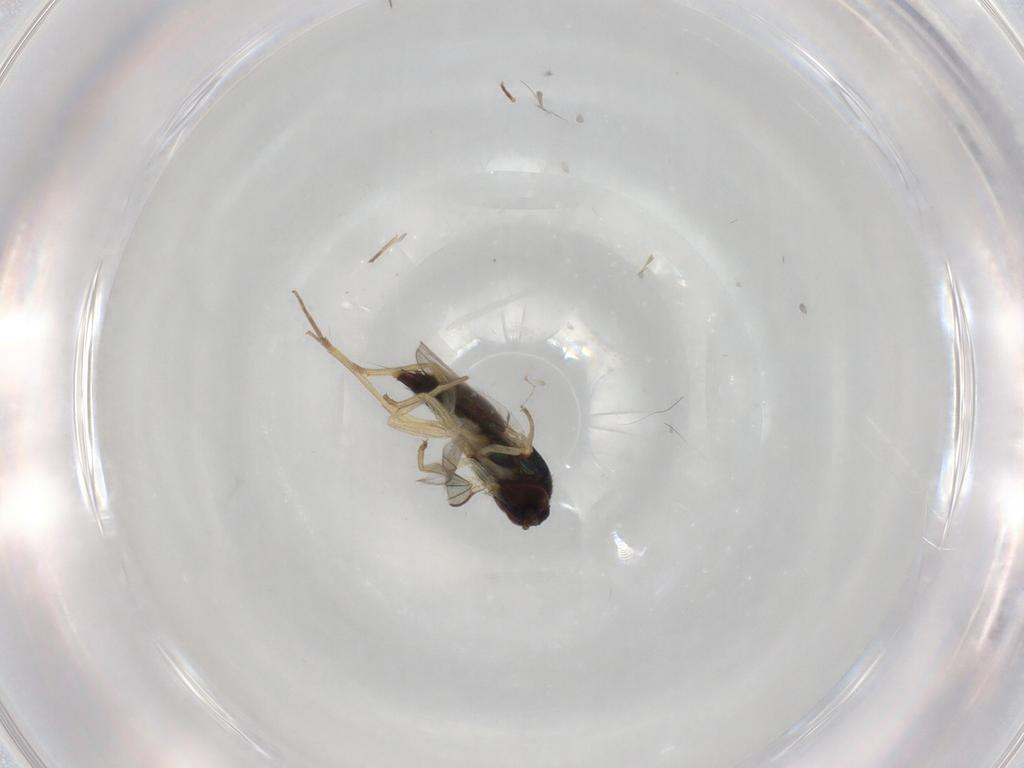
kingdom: Animalia
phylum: Arthropoda
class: Insecta
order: Diptera
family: Dolichopodidae
